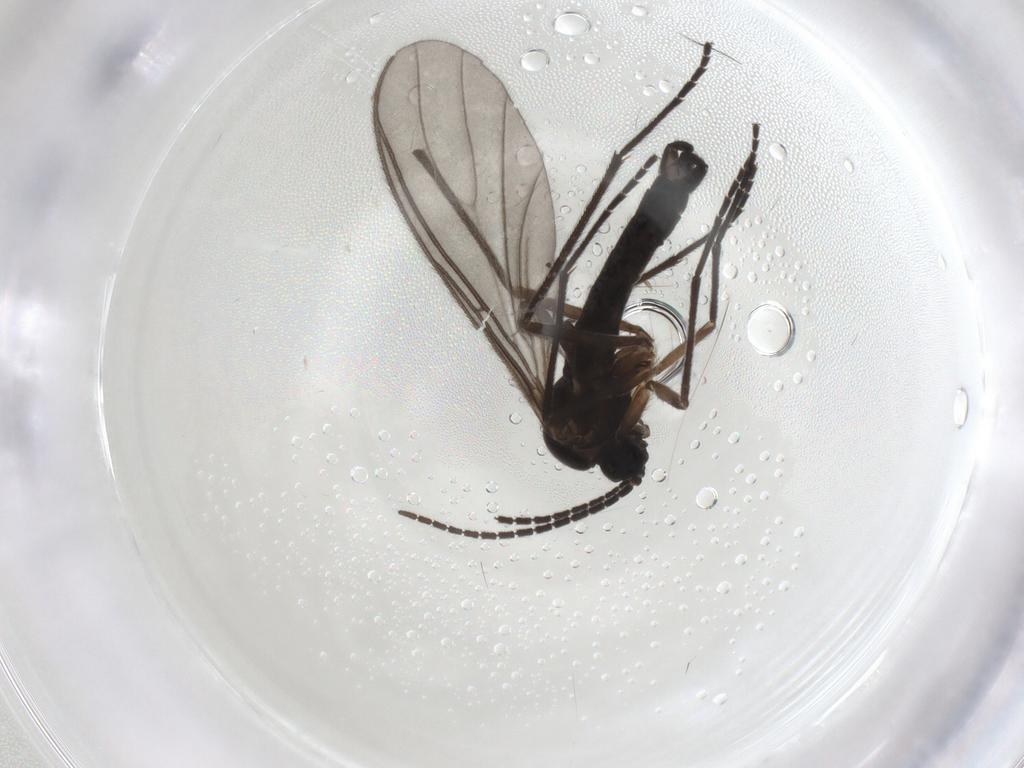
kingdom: Animalia
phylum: Arthropoda
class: Insecta
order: Diptera
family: Sciaridae
